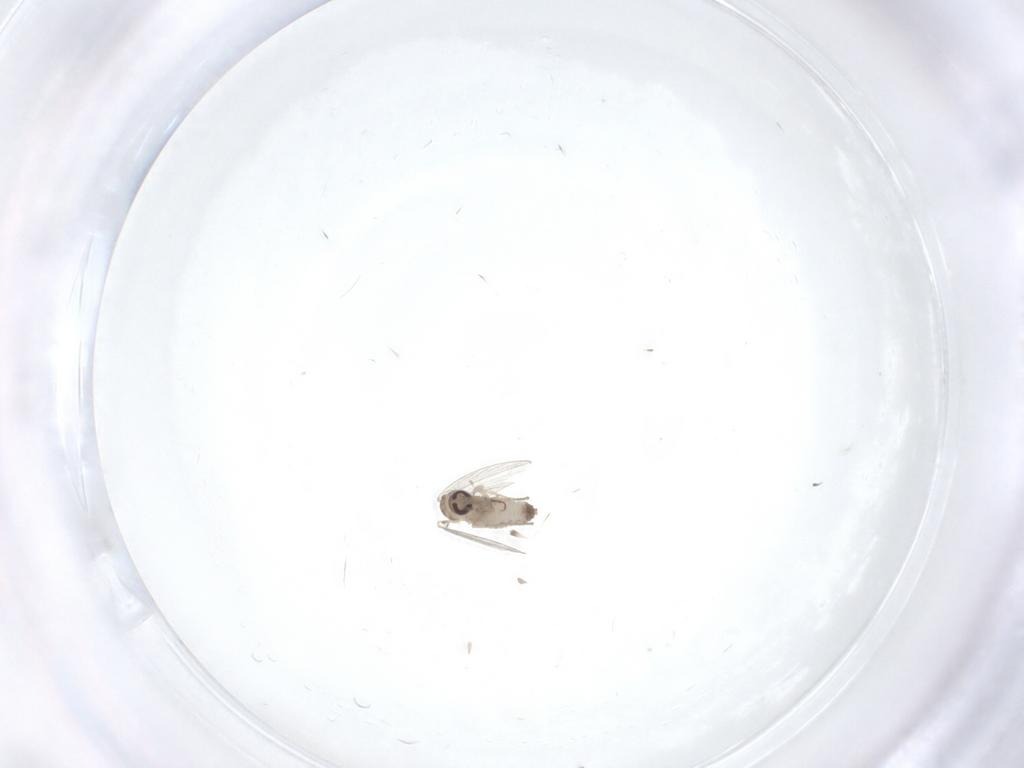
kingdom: Animalia
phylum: Arthropoda
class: Insecta
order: Diptera
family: Psychodidae
